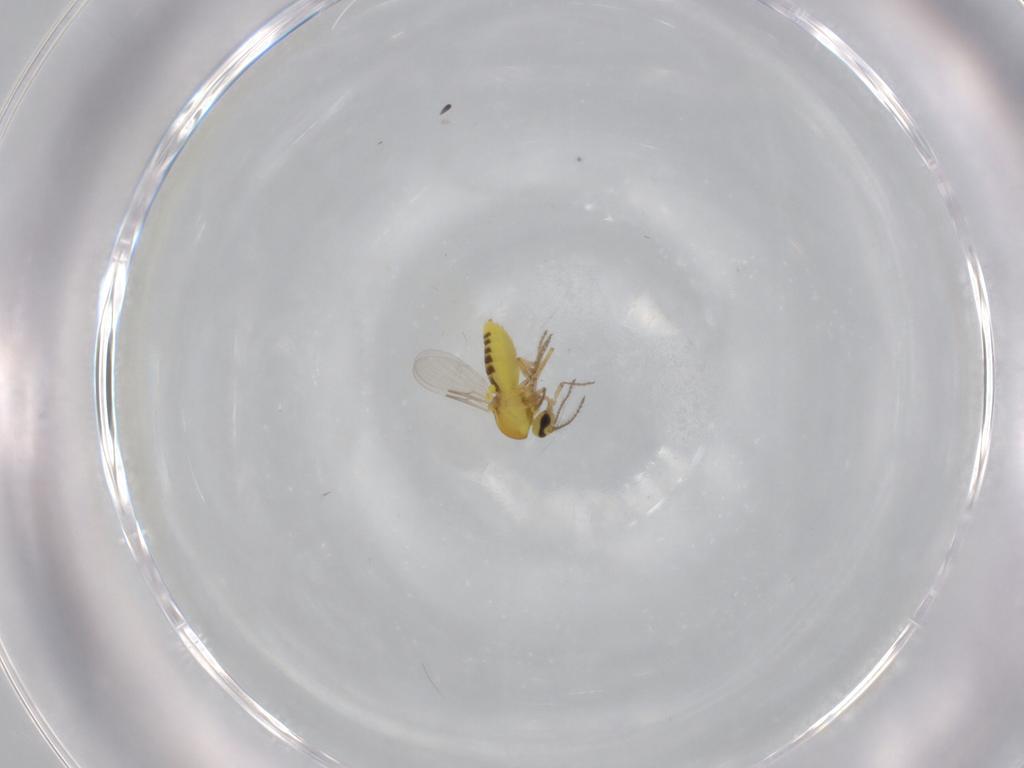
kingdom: Animalia
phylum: Arthropoda
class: Insecta
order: Diptera
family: Ceratopogonidae
